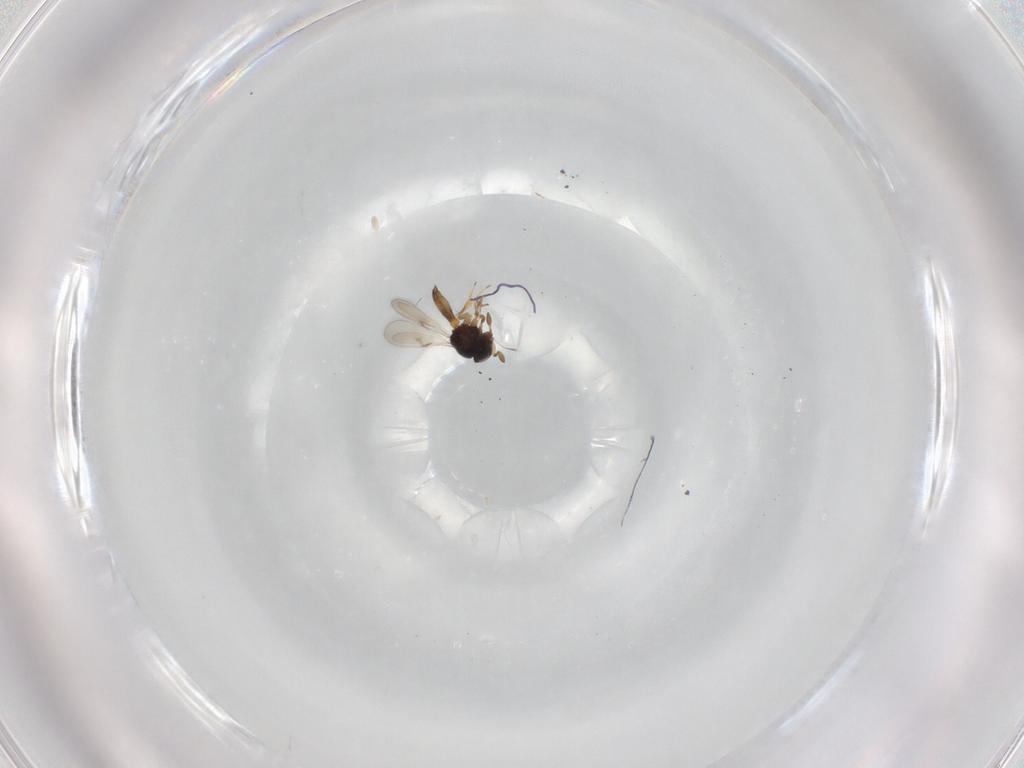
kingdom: Animalia
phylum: Arthropoda
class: Insecta
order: Hymenoptera
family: Scelionidae
